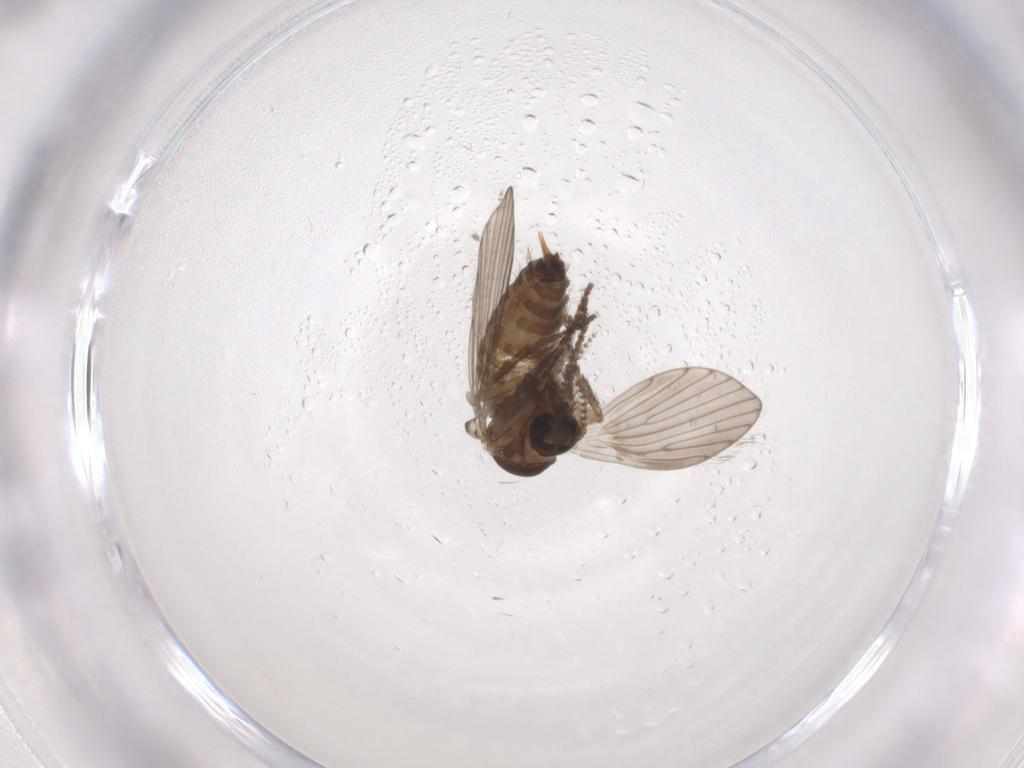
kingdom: Animalia
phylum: Arthropoda
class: Insecta
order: Diptera
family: Psychodidae
